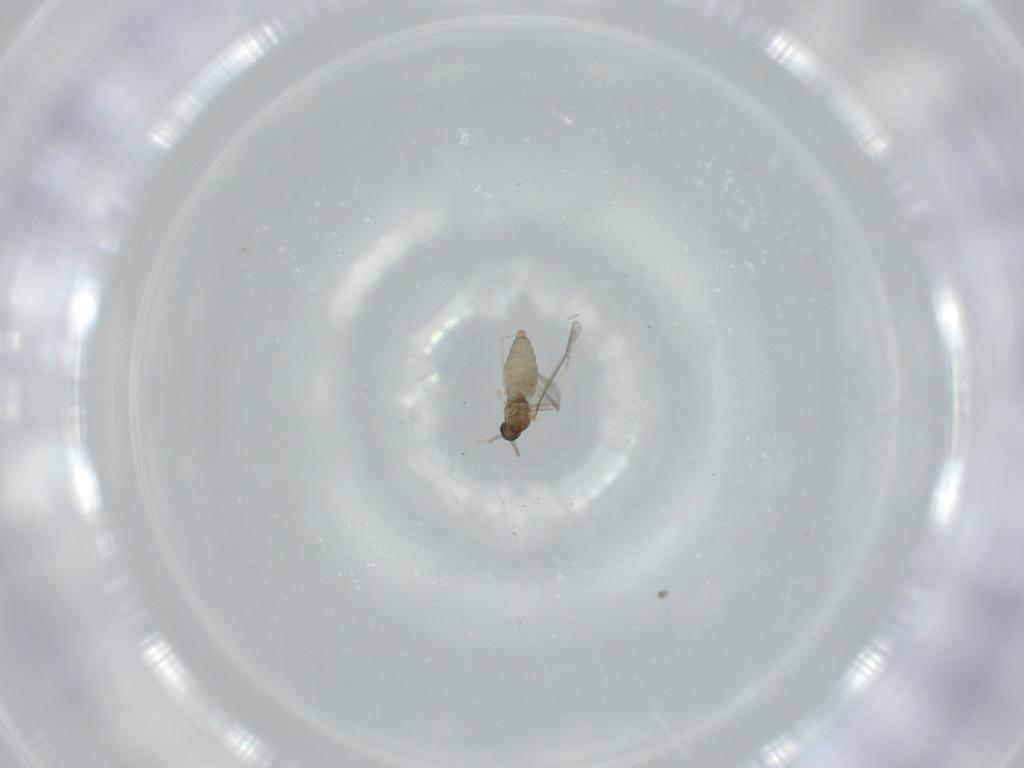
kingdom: Animalia
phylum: Arthropoda
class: Insecta
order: Diptera
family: Cecidomyiidae
